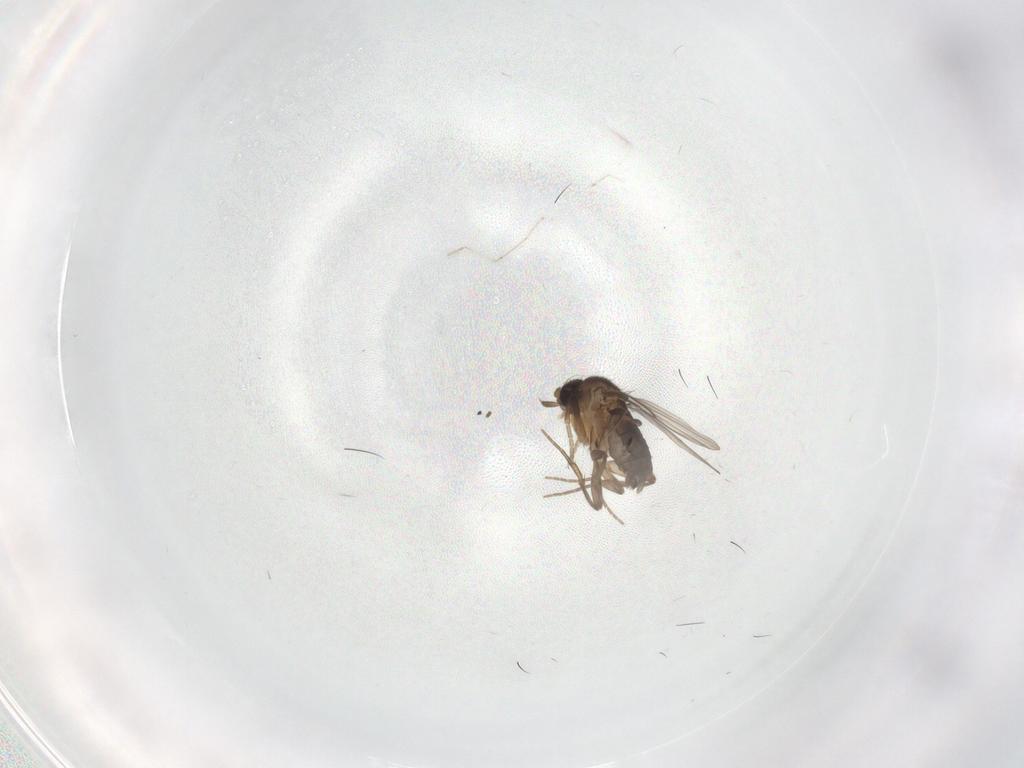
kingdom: Animalia
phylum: Arthropoda
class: Insecta
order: Diptera
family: Phoridae
